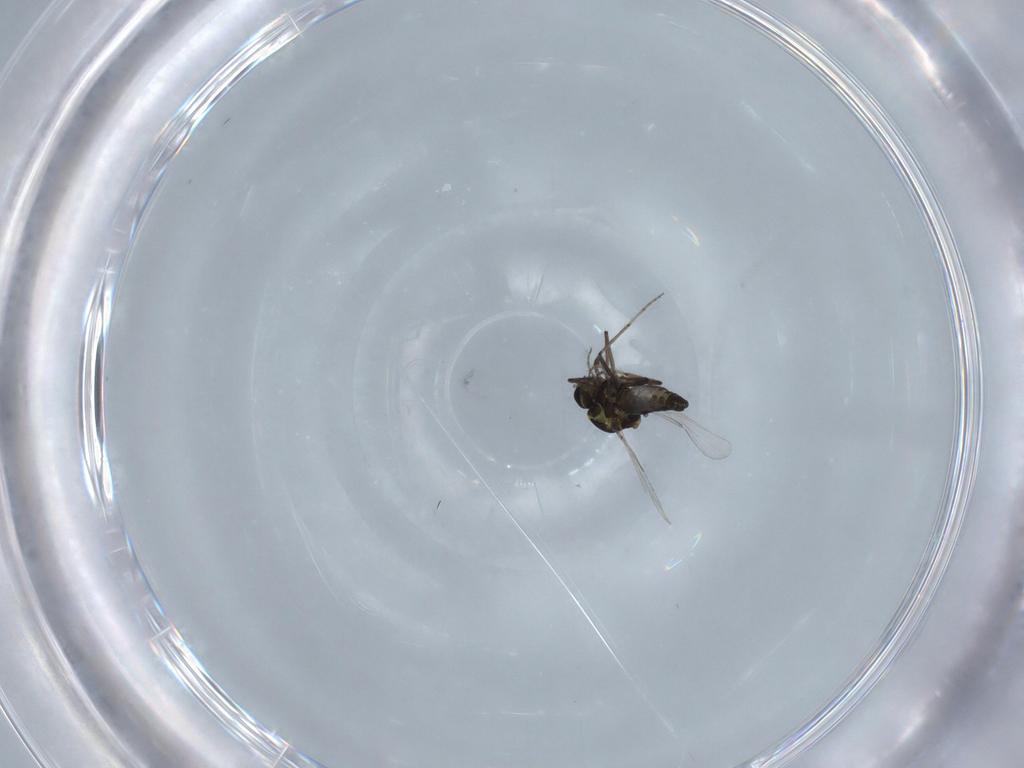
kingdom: Animalia
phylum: Arthropoda
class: Insecta
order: Diptera
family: Ceratopogonidae
